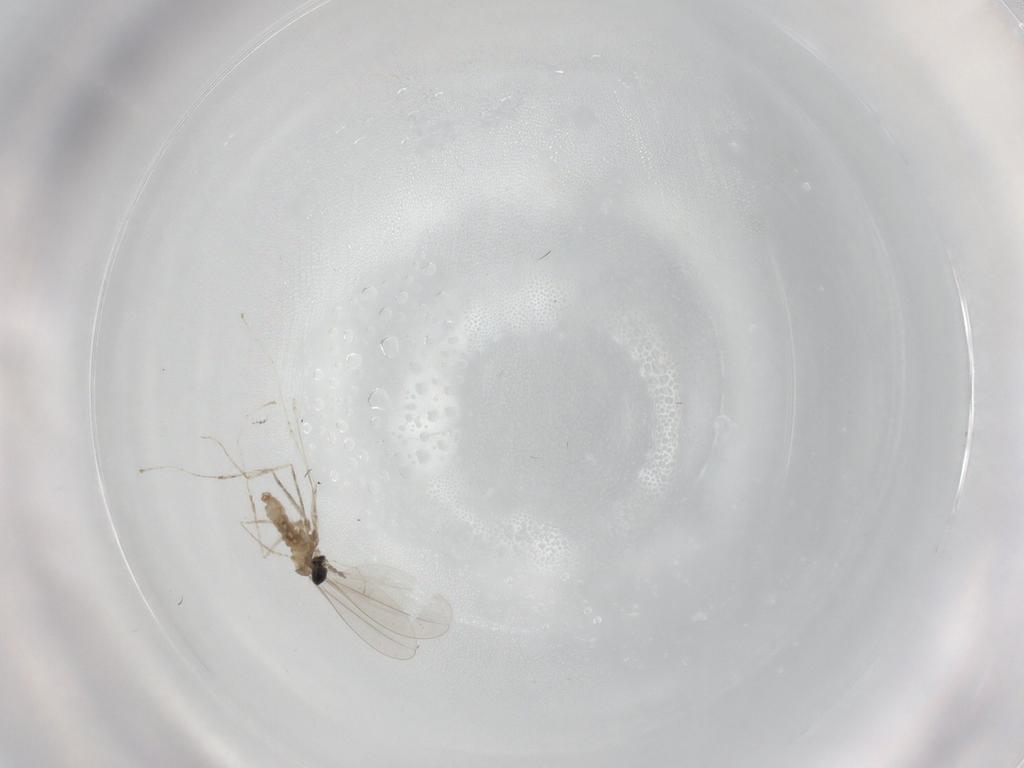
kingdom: Animalia
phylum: Arthropoda
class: Insecta
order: Diptera
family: Cecidomyiidae
